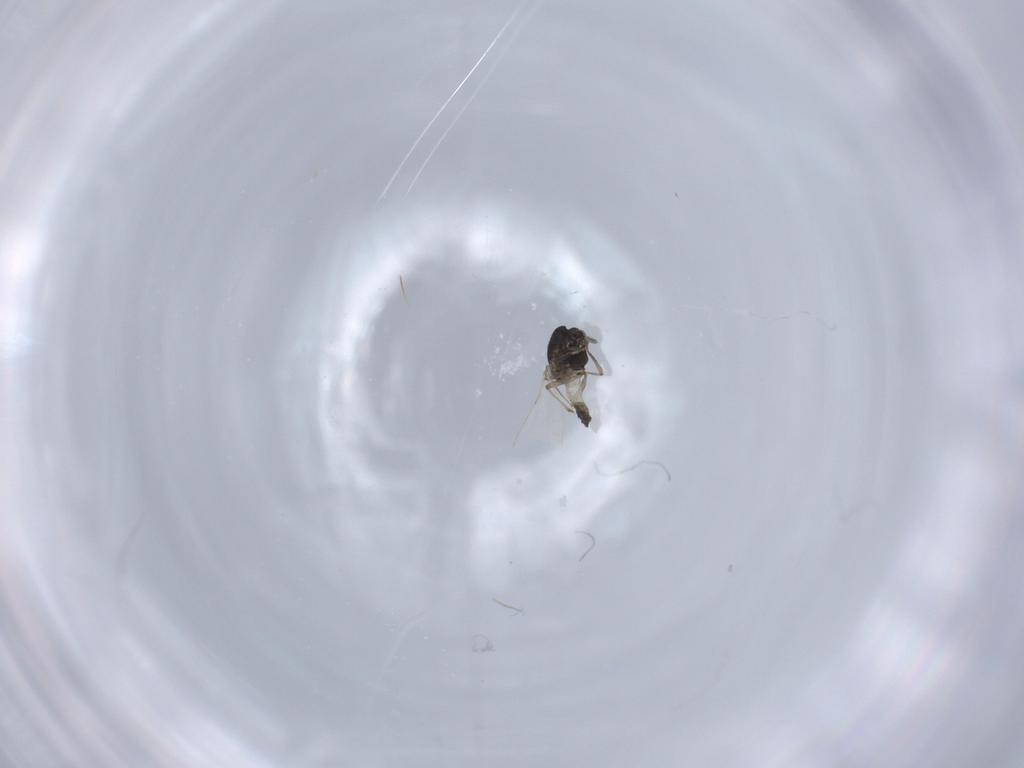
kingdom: Animalia
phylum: Arthropoda
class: Insecta
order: Diptera
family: Chironomidae
